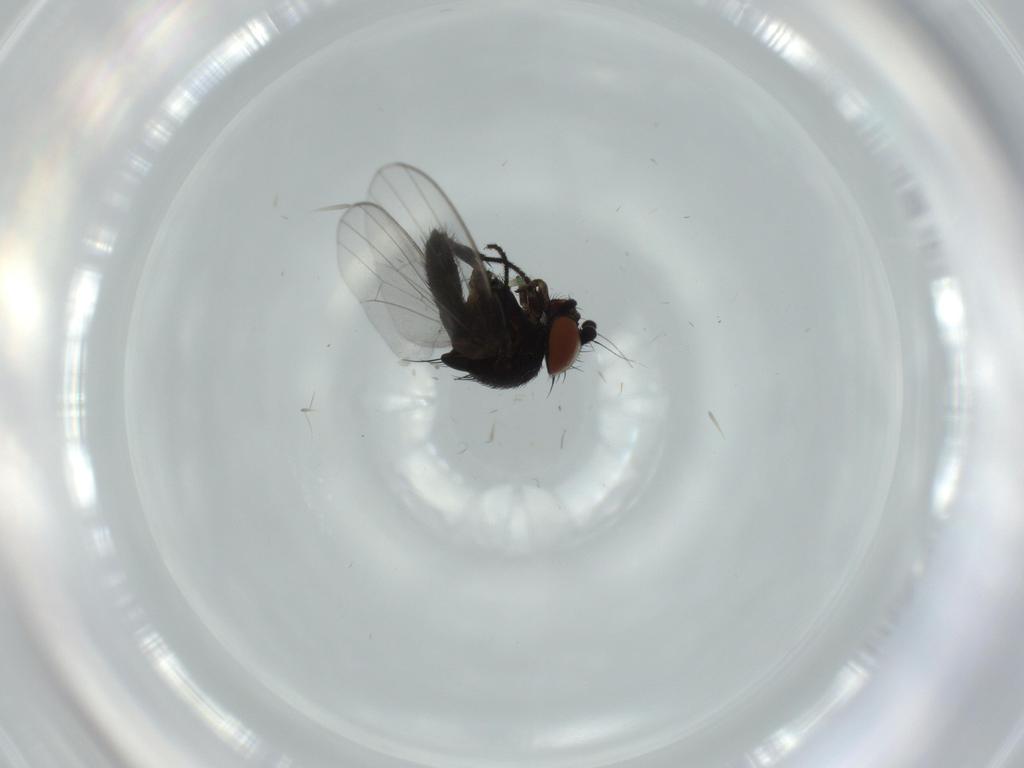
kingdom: Animalia
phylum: Arthropoda
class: Insecta
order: Diptera
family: Milichiidae
